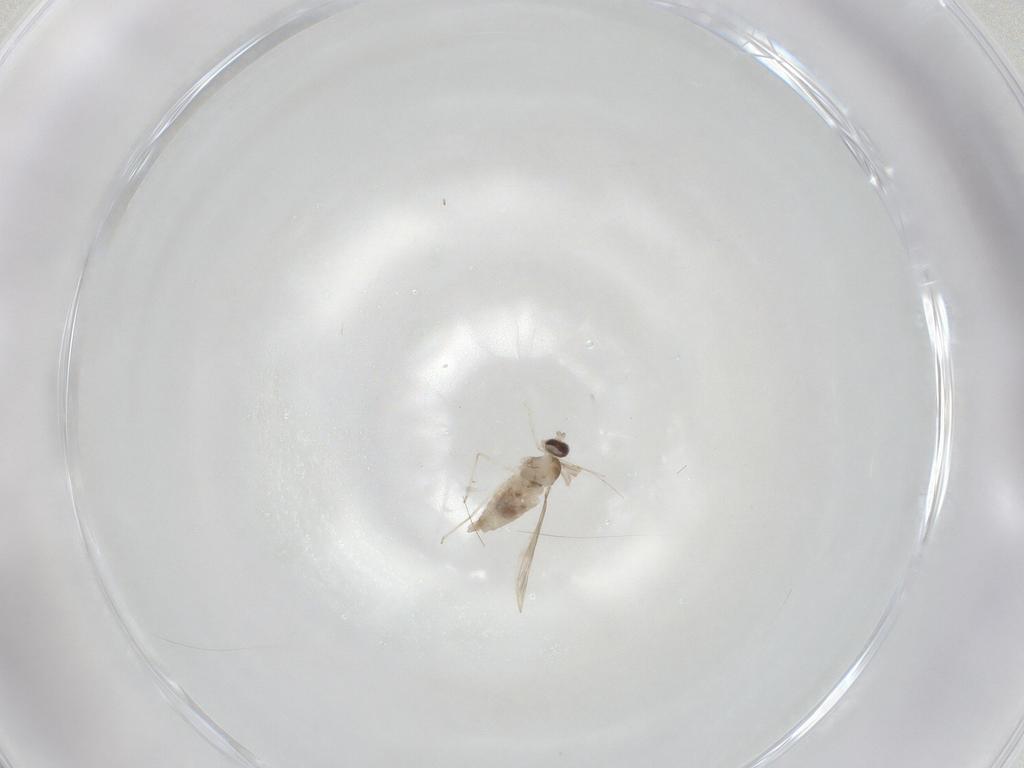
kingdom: Animalia
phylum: Arthropoda
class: Insecta
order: Diptera
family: Cecidomyiidae
